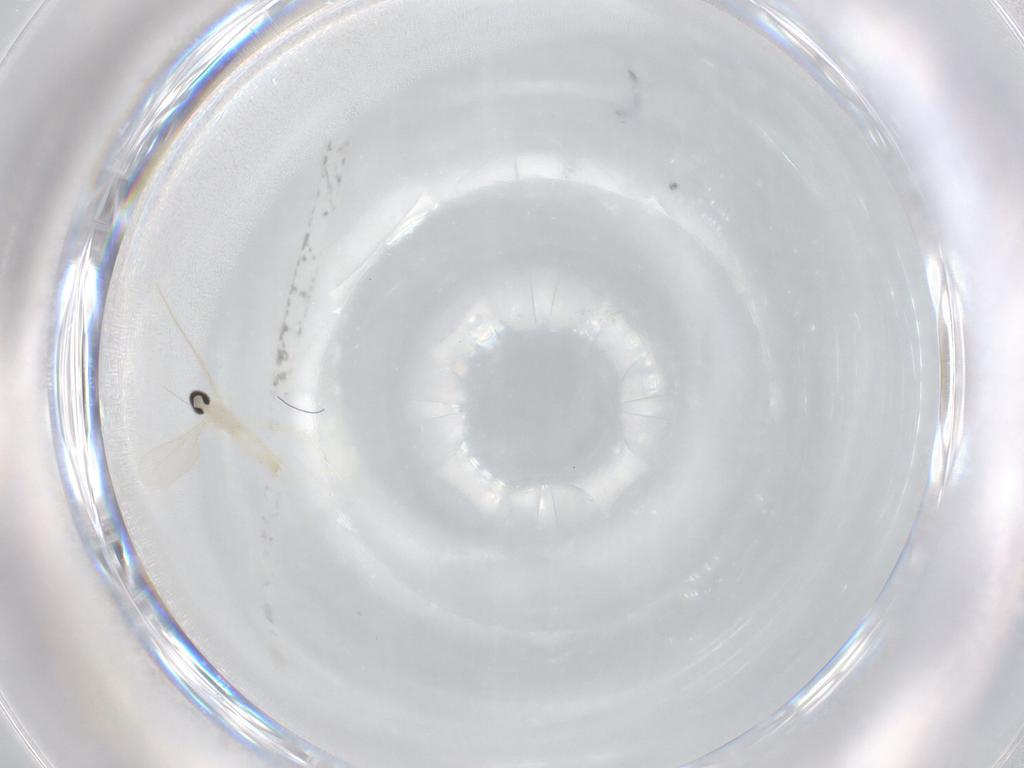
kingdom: Animalia
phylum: Arthropoda
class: Insecta
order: Diptera
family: Cecidomyiidae
